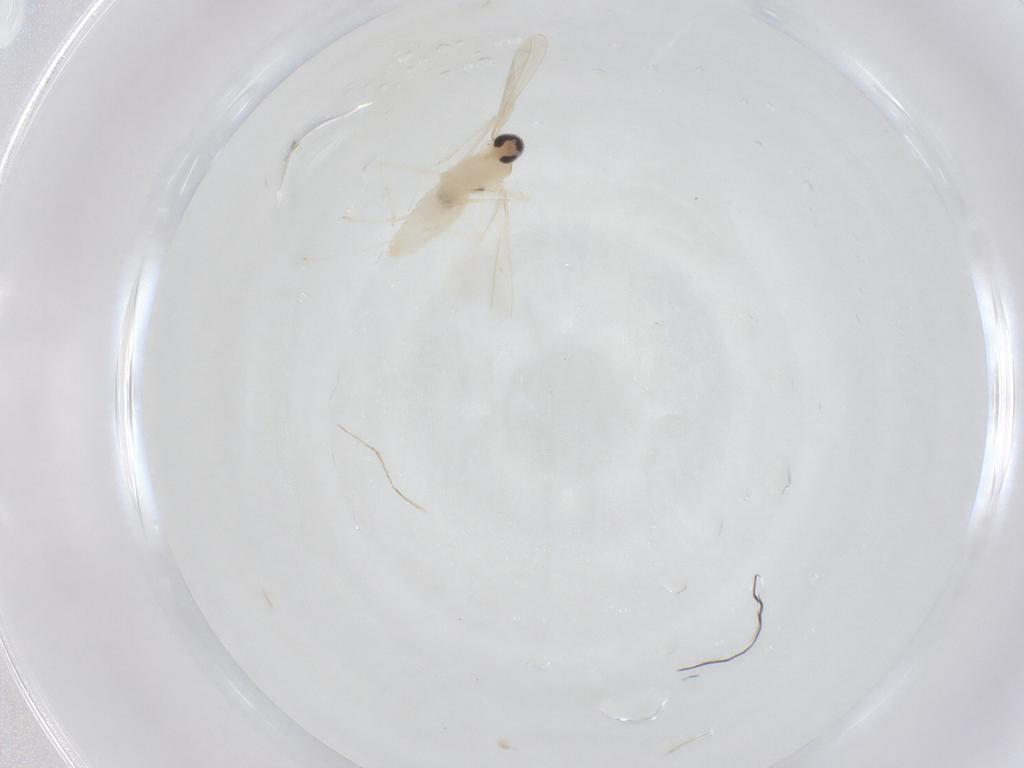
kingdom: Animalia
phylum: Arthropoda
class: Insecta
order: Diptera
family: Cecidomyiidae
